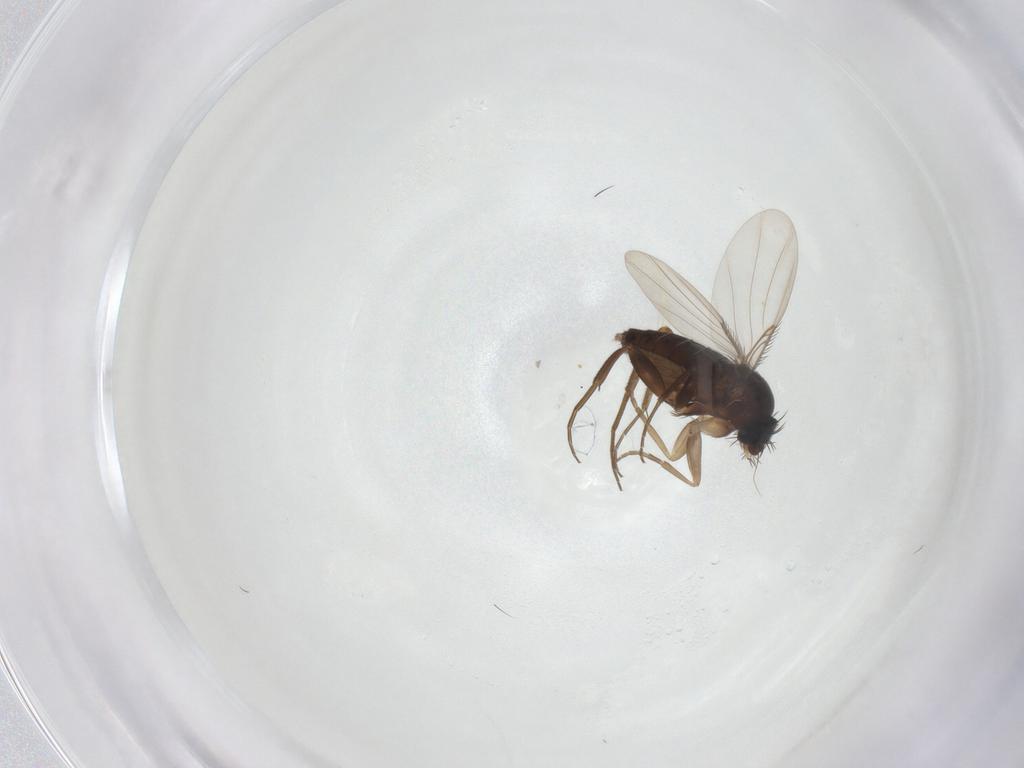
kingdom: Animalia
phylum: Arthropoda
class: Insecta
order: Diptera
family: Phoridae
